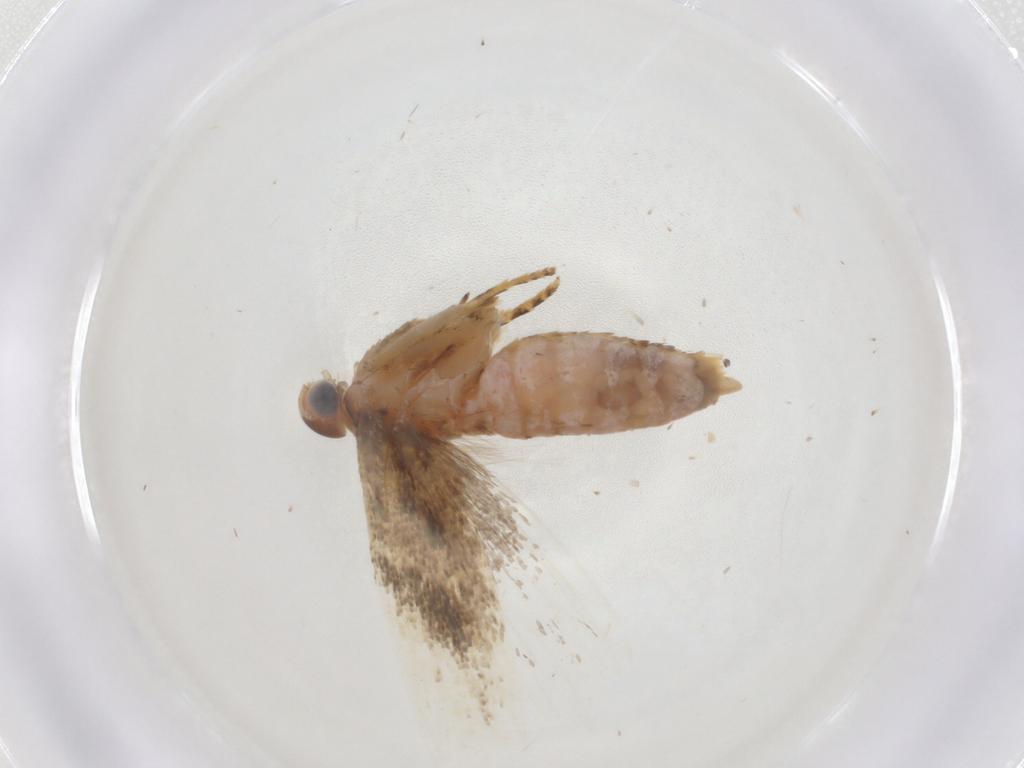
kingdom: Animalia
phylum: Arthropoda
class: Insecta
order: Lepidoptera
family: Gelechiidae
